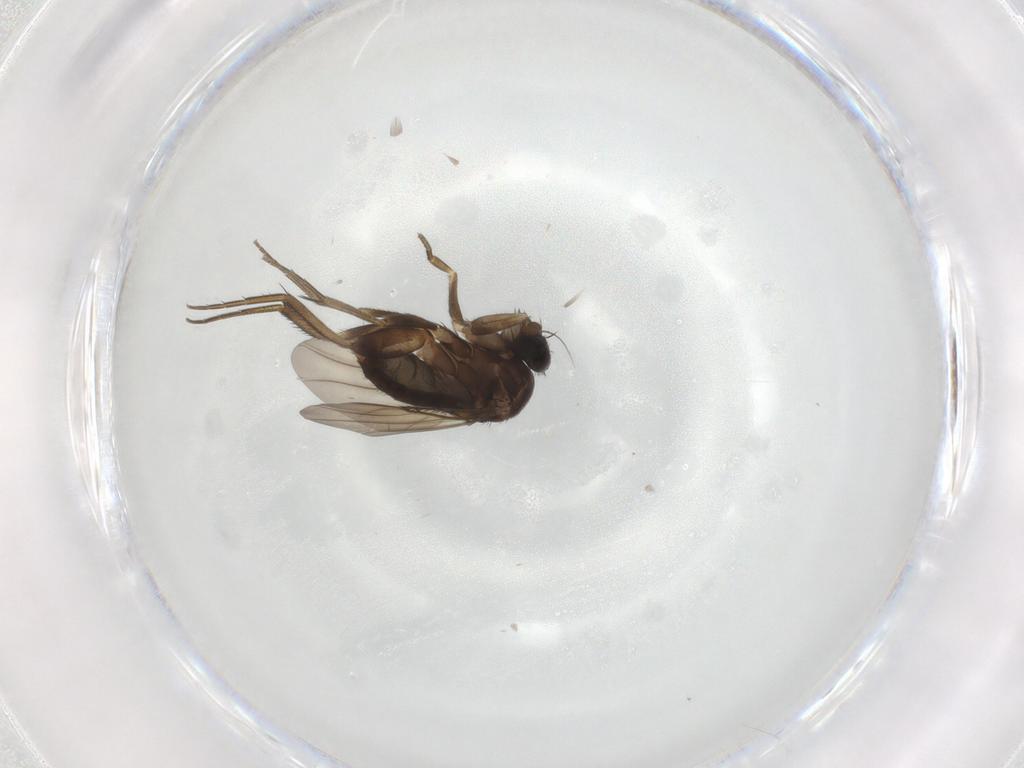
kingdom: Animalia
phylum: Arthropoda
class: Insecta
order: Diptera
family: Phoridae
